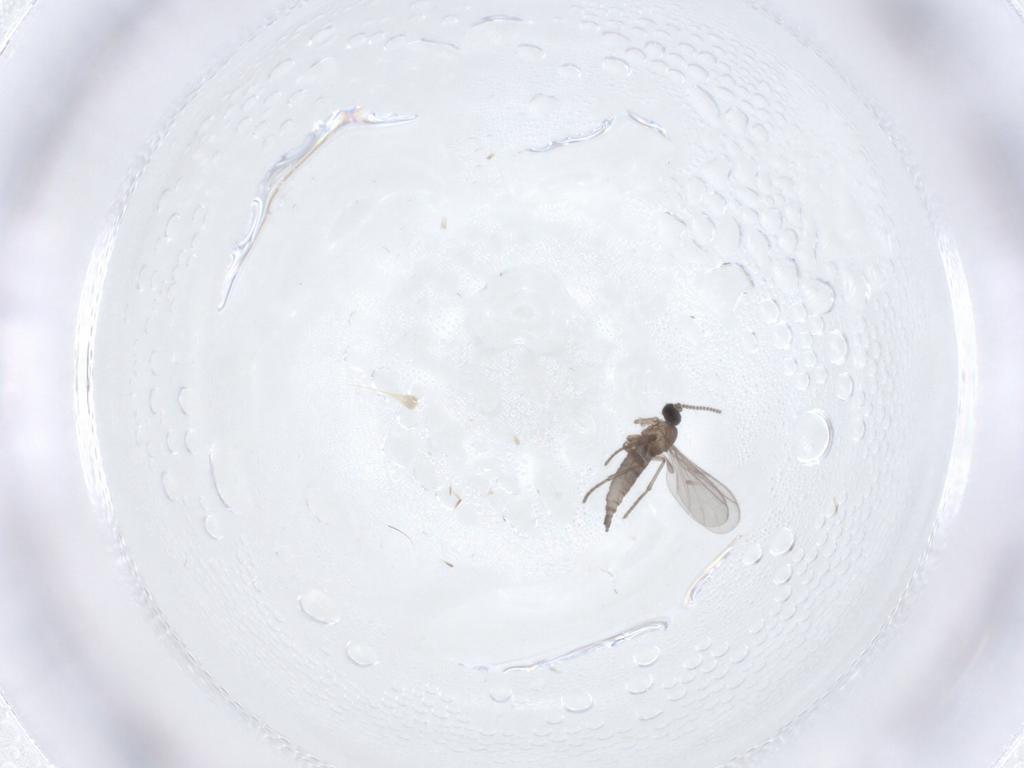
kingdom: Animalia
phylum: Arthropoda
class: Insecta
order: Diptera
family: Sciaridae
